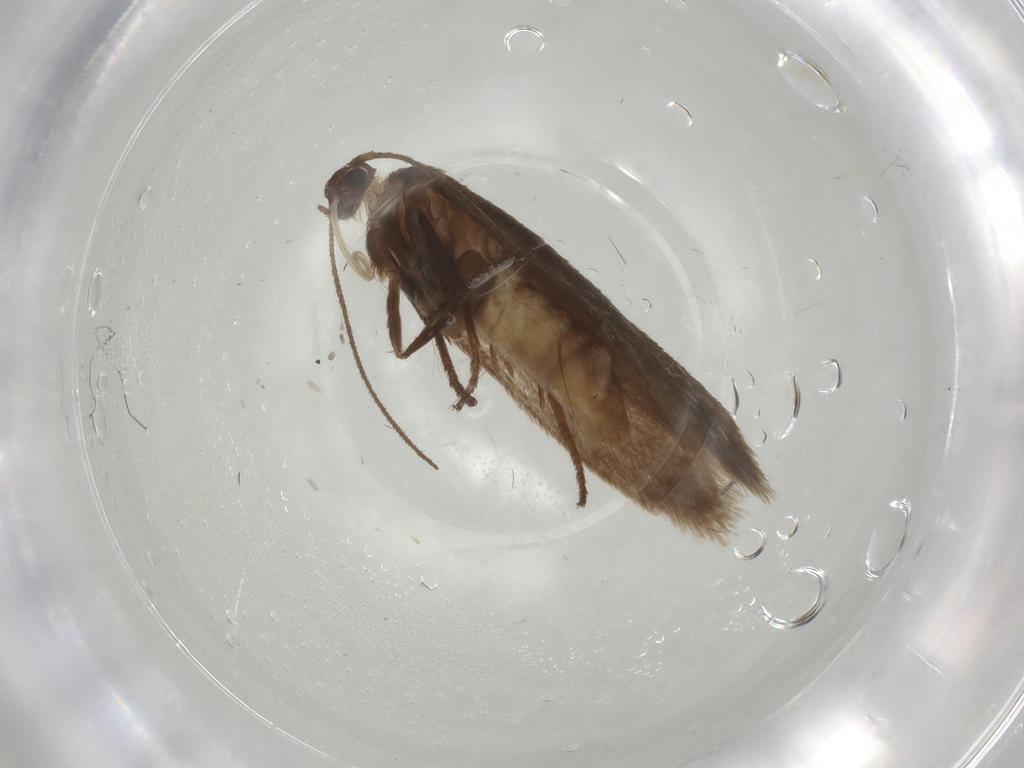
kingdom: Animalia
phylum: Arthropoda
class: Insecta
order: Lepidoptera
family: Limacodidae
